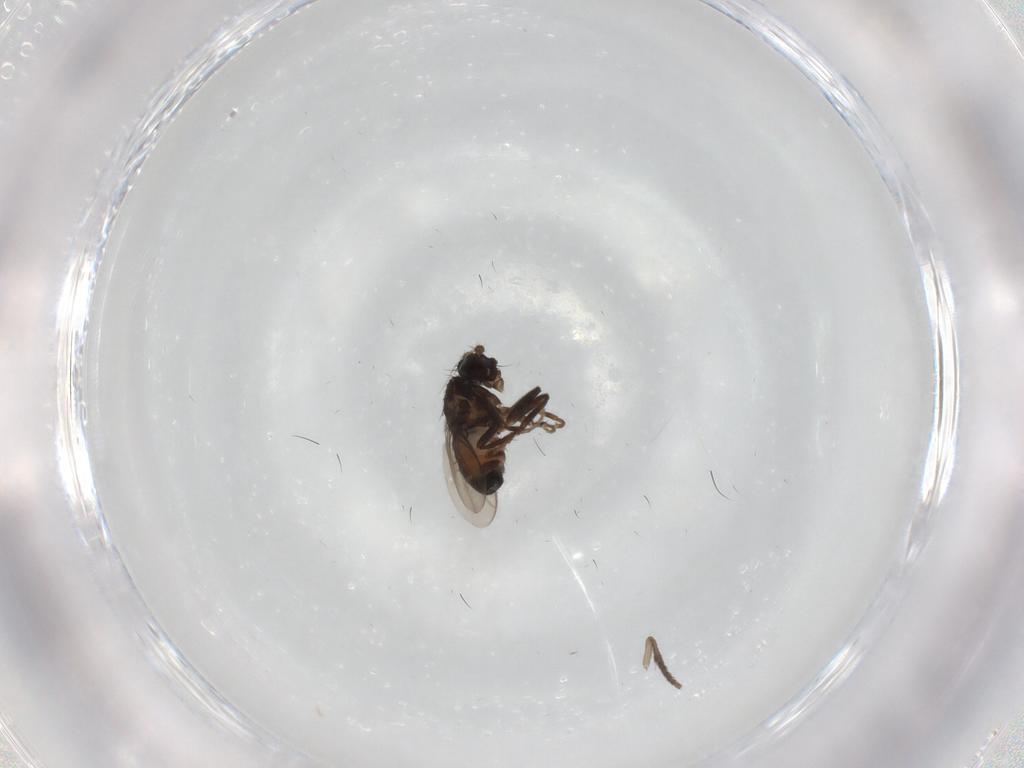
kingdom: Animalia
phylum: Arthropoda
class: Insecta
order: Diptera
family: Sphaeroceridae
